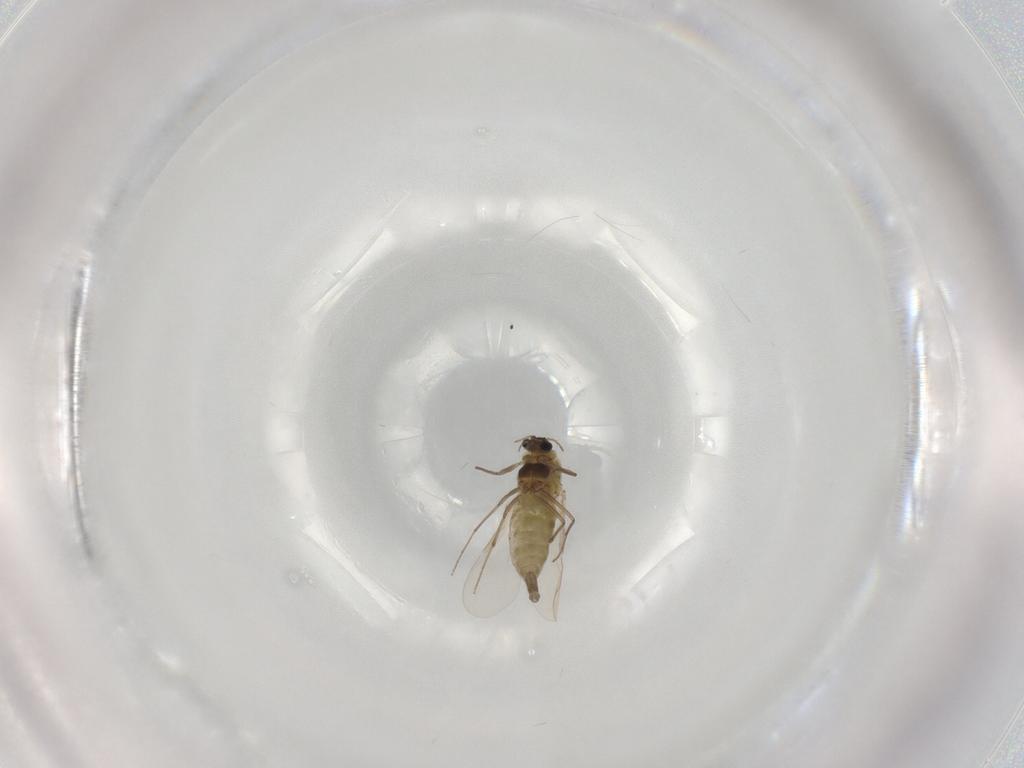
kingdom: Animalia
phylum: Arthropoda
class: Insecta
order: Diptera
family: Chironomidae
